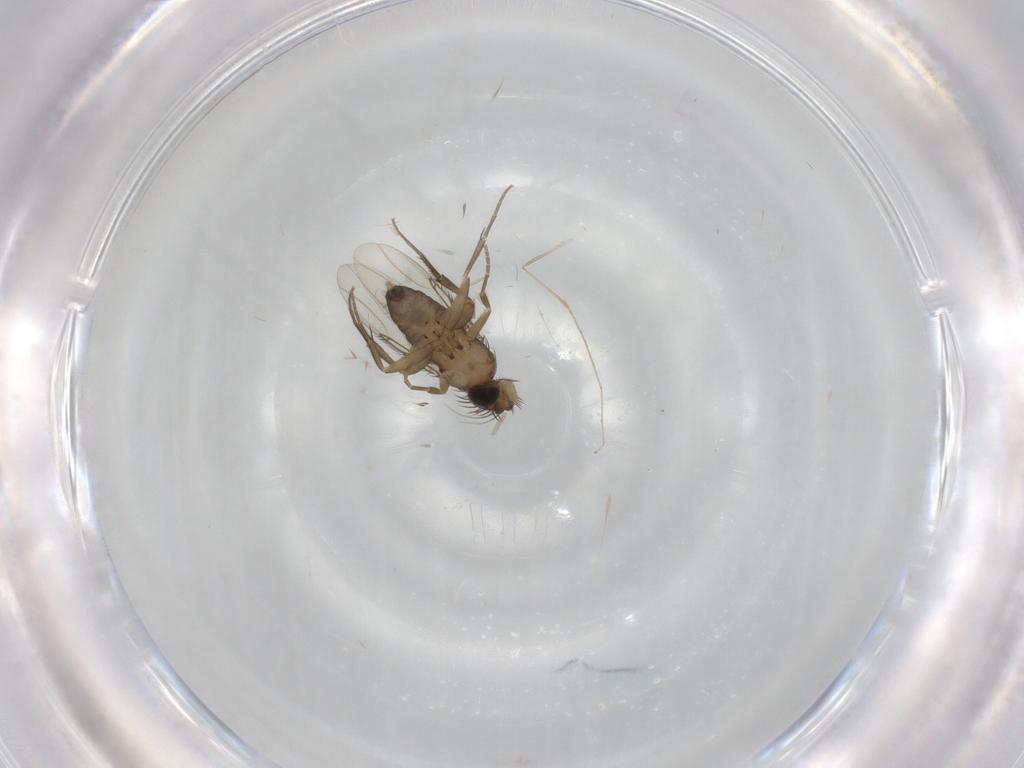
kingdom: Animalia
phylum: Arthropoda
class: Insecta
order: Diptera
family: Phoridae
